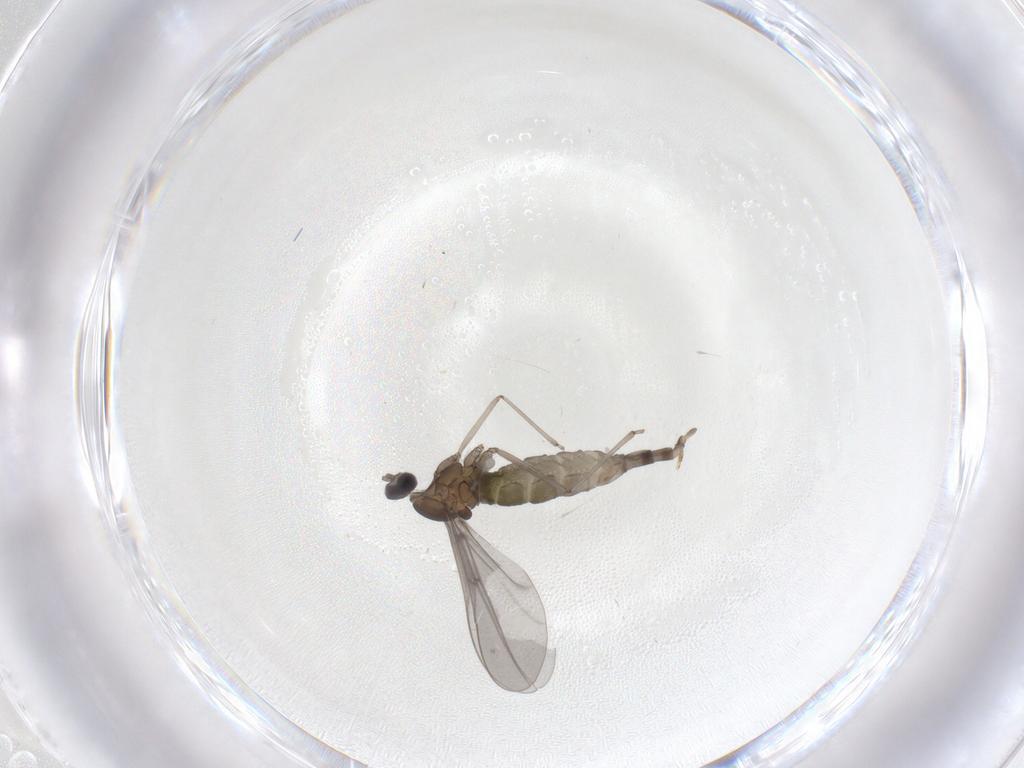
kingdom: Animalia
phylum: Arthropoda
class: Insecta
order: Diptera
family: Cecidomyiidae
